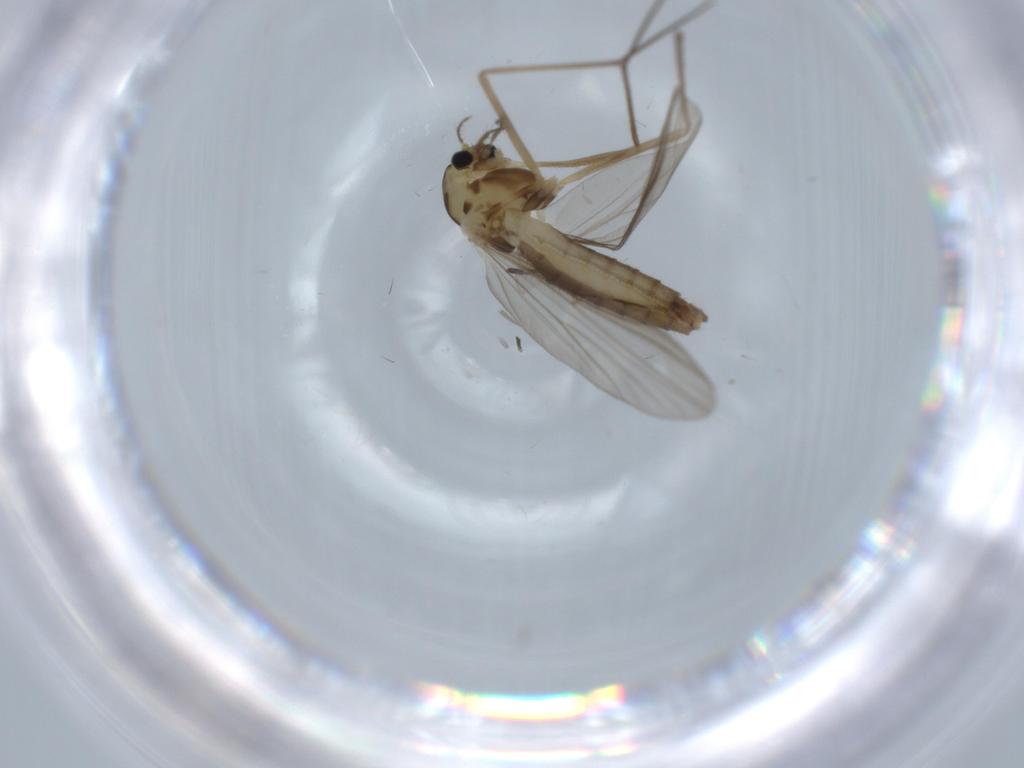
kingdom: Animalia
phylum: Arthropoda
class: Insecta
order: Diptera
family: Chironomidae
